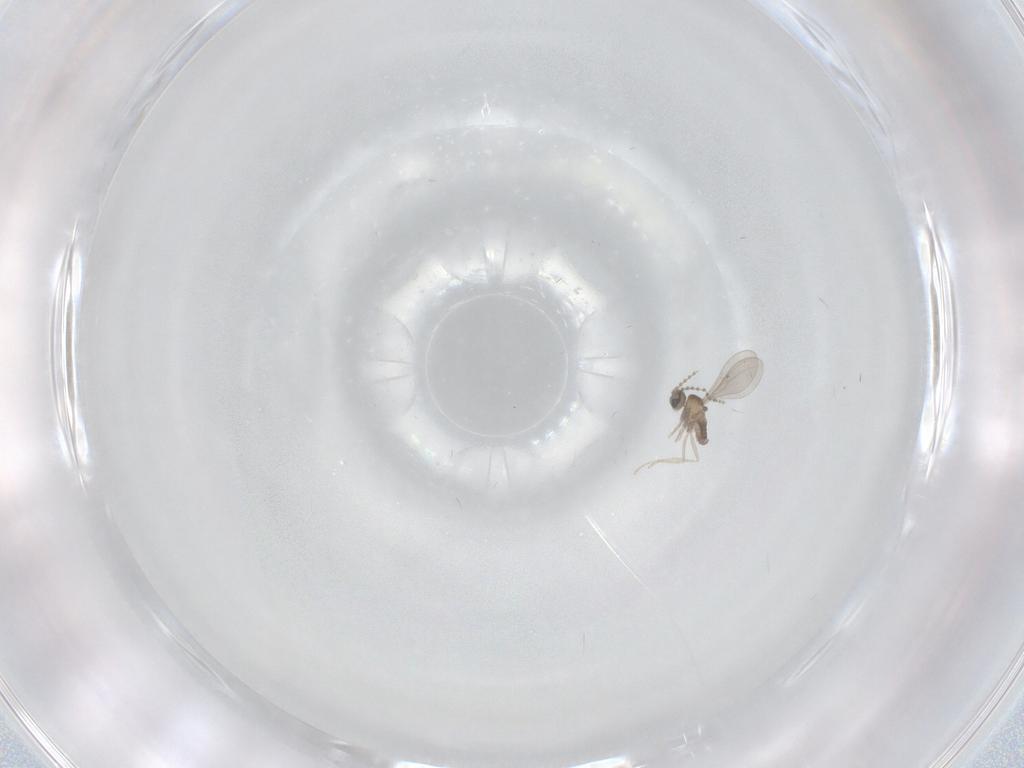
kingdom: Animalia
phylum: Arthropoda
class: Insecta
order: Diptera
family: Cecidomyiidae
